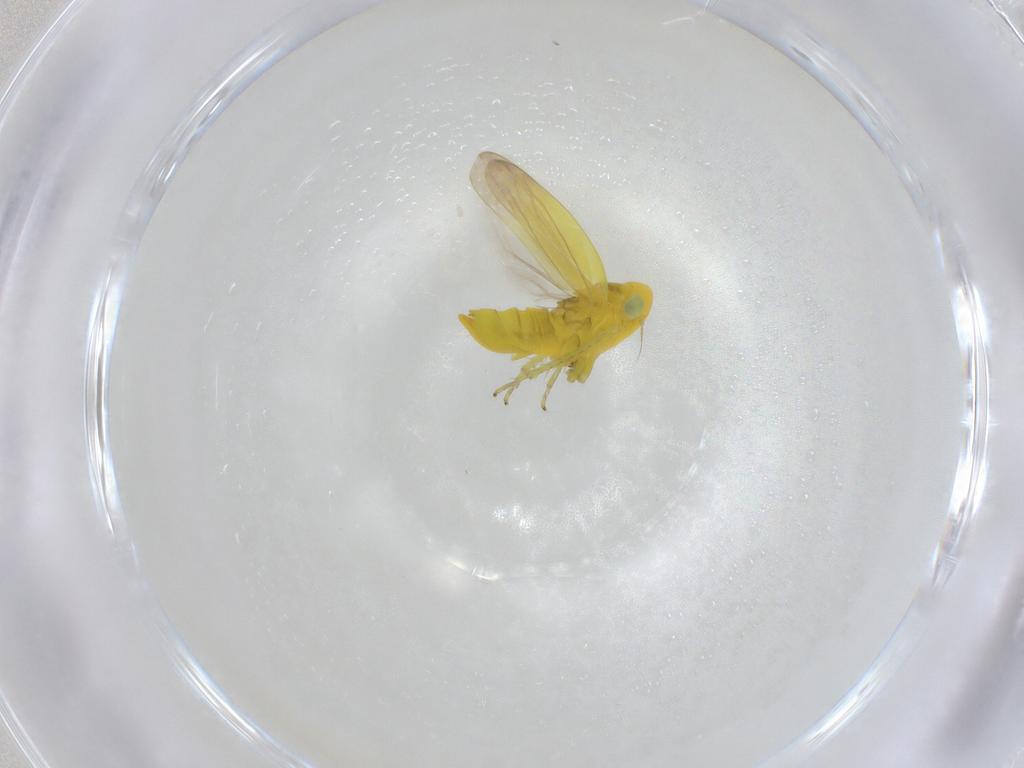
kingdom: Animalia
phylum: Arthropoda
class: Insecta
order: Hemiptera
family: Cicadellidae
